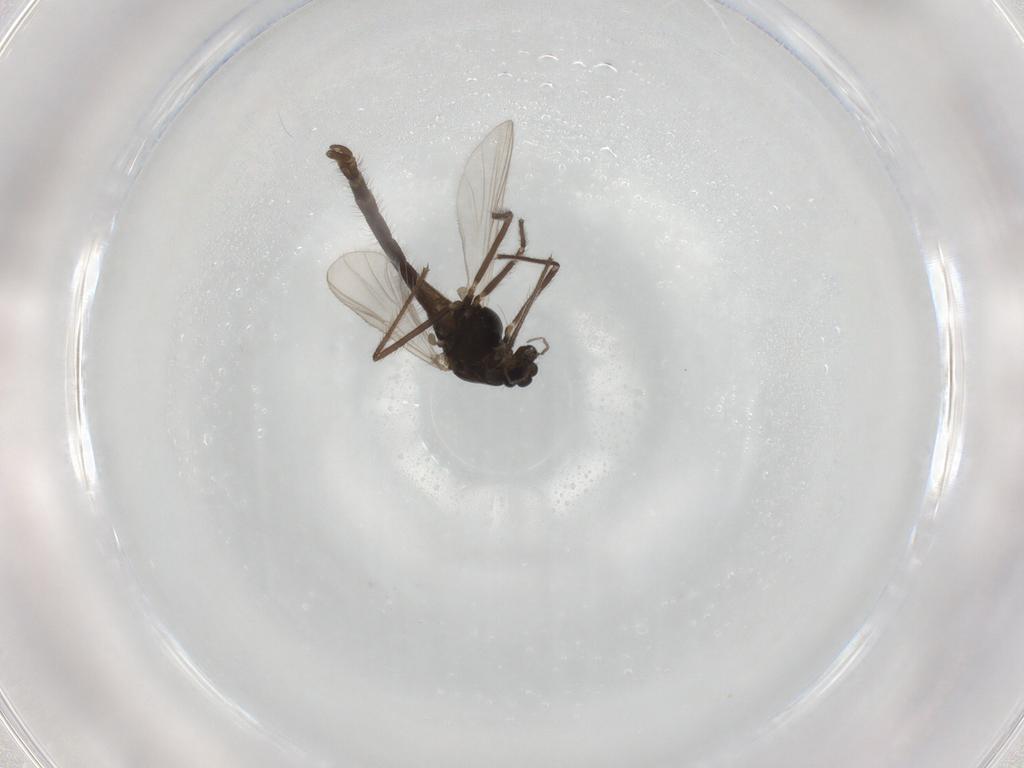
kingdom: Animalia
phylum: Arthropoda
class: Insecta
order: Diptera
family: Chironomidae
